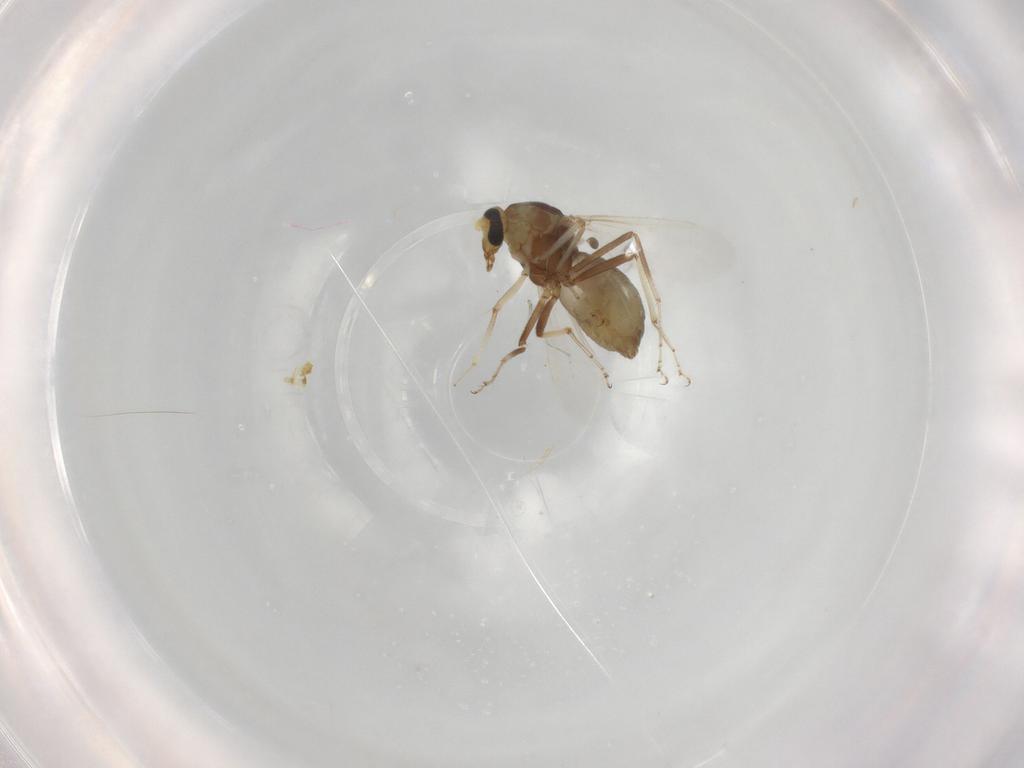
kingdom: Animalia
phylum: Arthropoda
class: Insecta
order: Diptera
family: Ceratopogonidae
